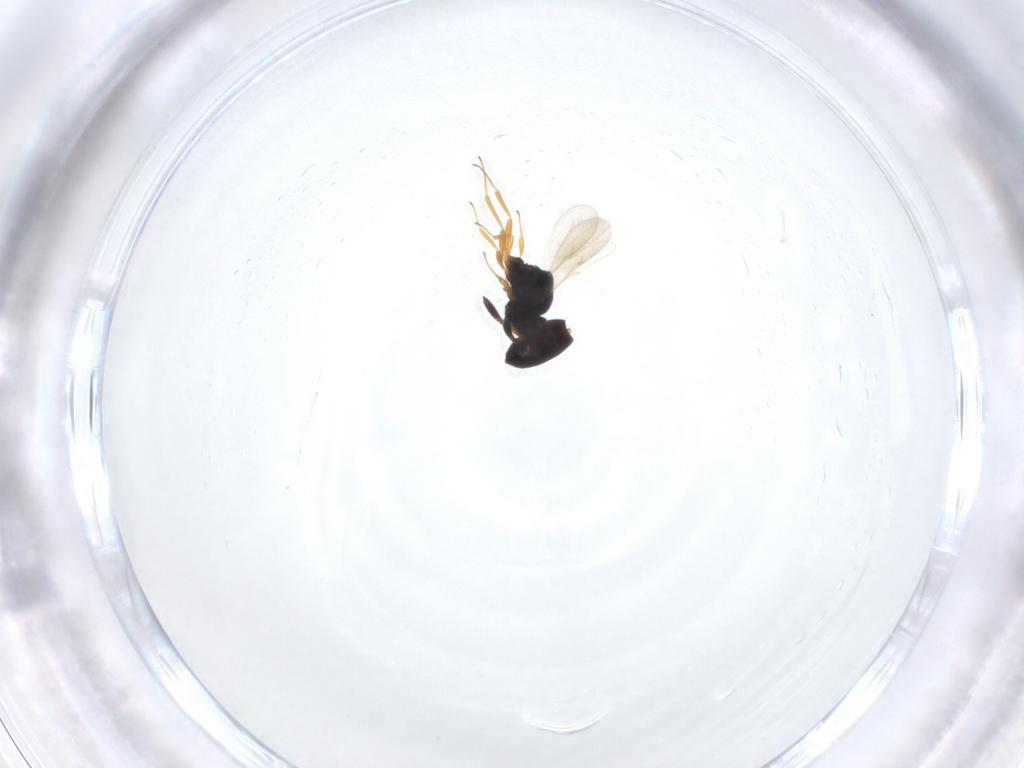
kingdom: Animalia
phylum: Arthropoda
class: Insecta
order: Hymenoptera
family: Scelionidae
